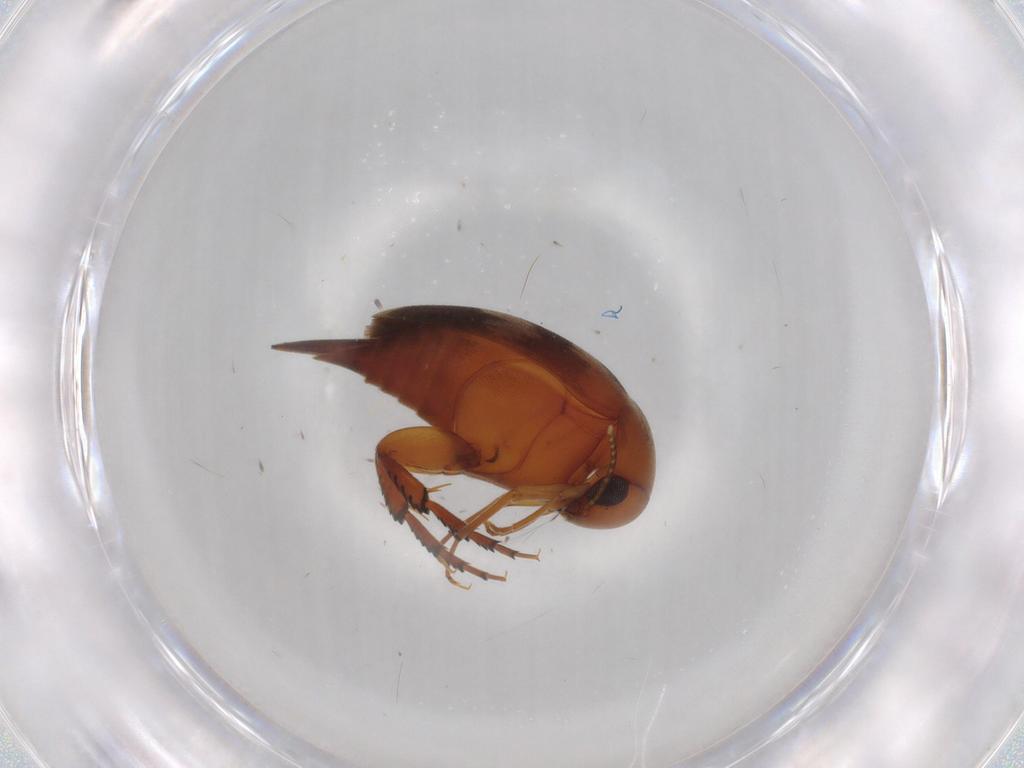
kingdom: Animalia
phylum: Arthropoda
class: Insecta
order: Coleoptera
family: Mordellidae
